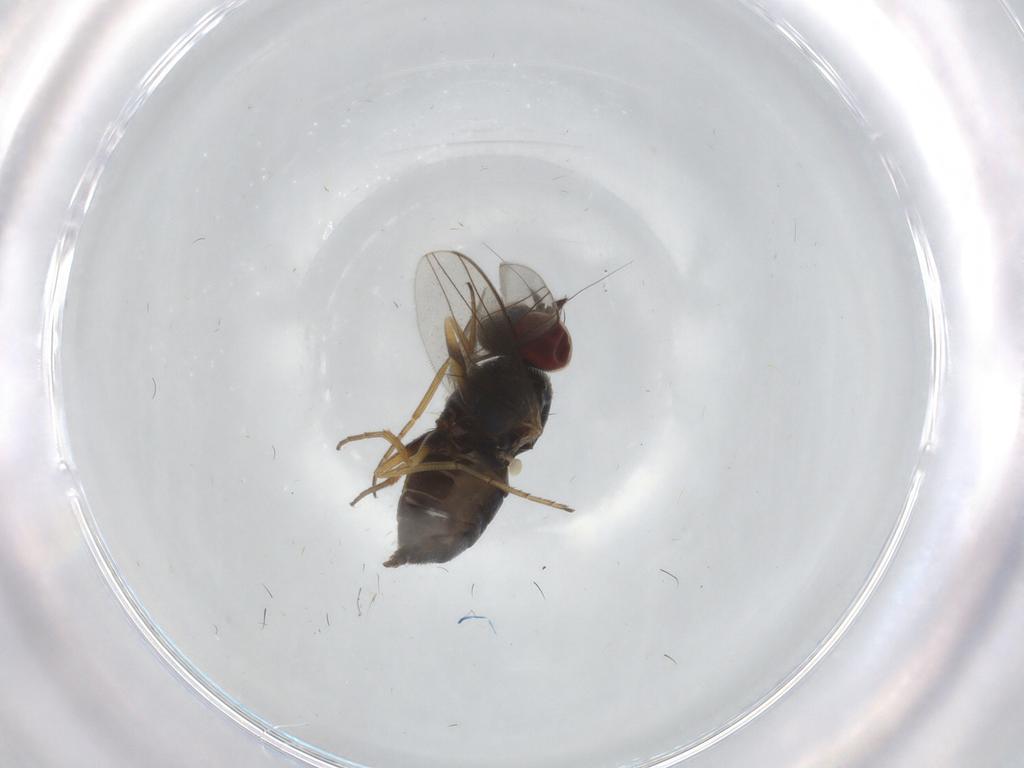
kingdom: Animalia
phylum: Arthropoda
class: Insecta
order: Diptera
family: Dolichopodidae
